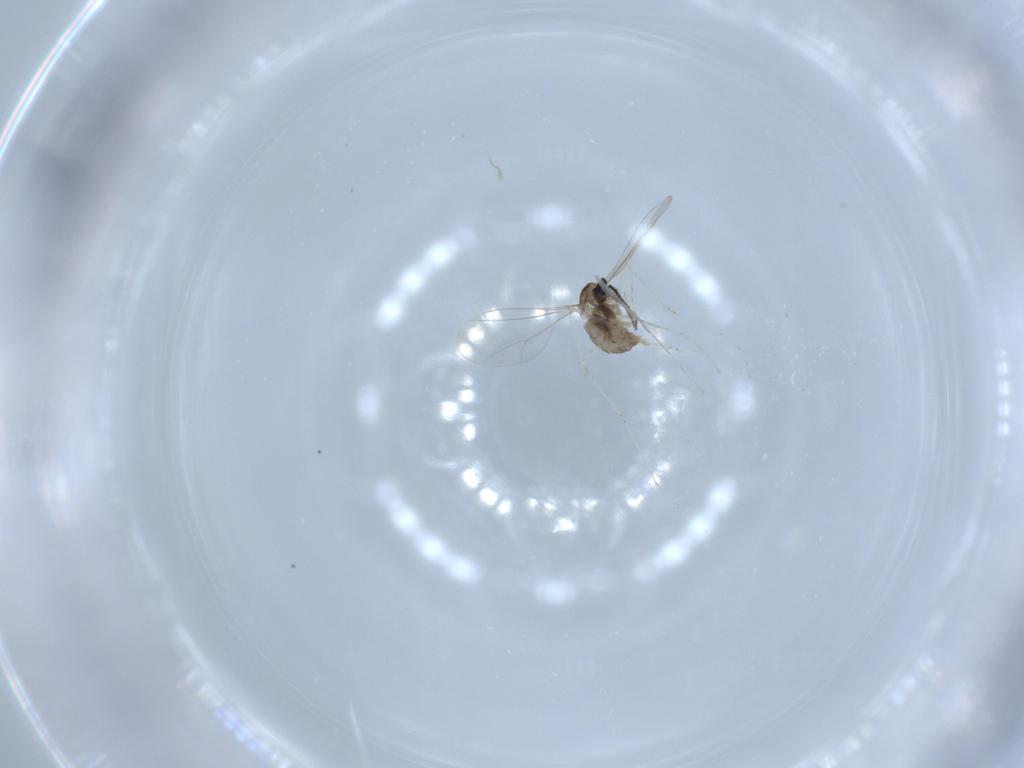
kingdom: Animalia
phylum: Arthropoda
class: Insecta
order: Diptera
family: Cecidomyiidae
